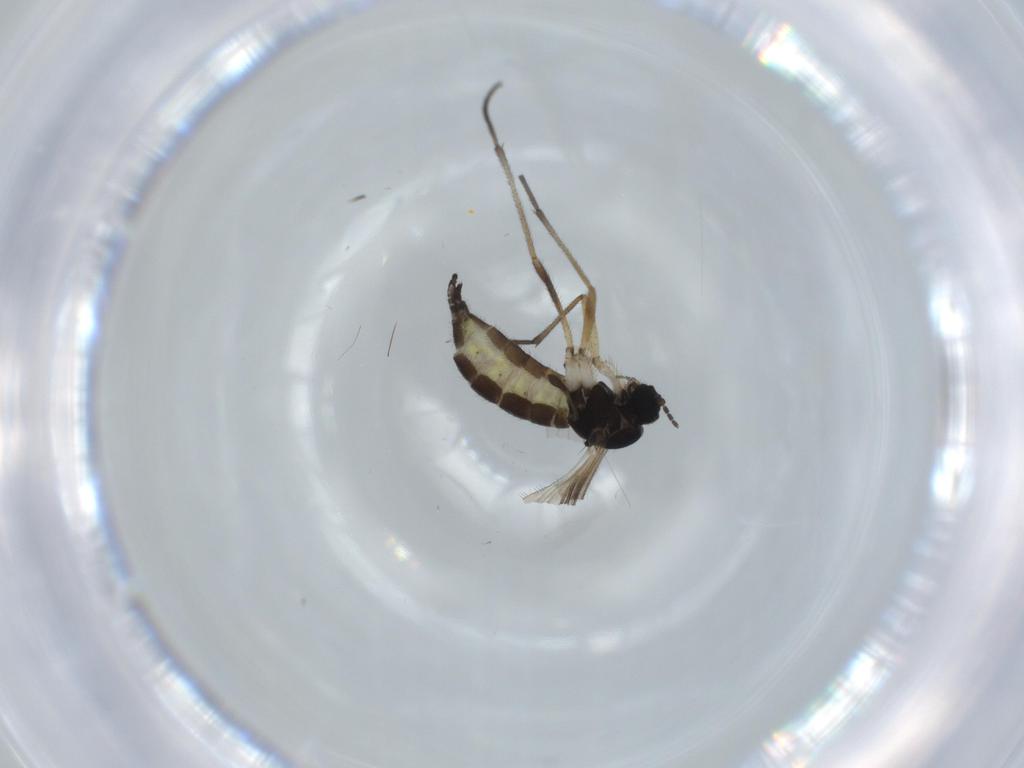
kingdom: Animalia
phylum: Arthropoda
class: Insecta
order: Diptera
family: Sciaridae
